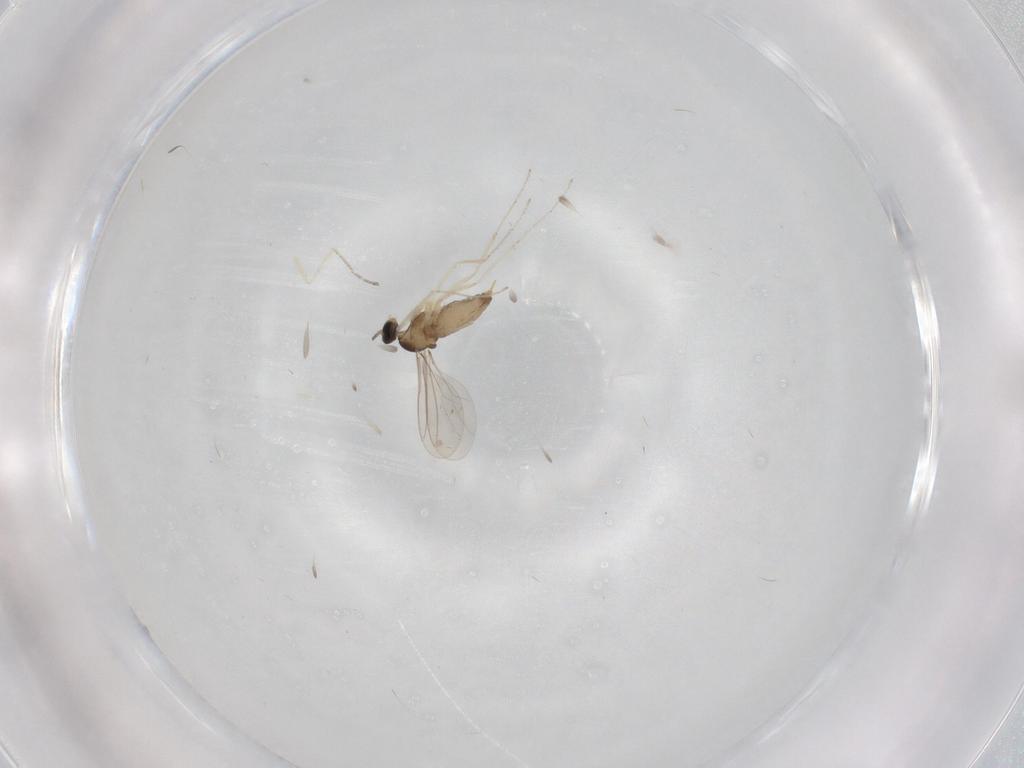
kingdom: Animalia
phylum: Arthropoda
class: Insecta
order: Diptera
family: Cecidomyiidae
